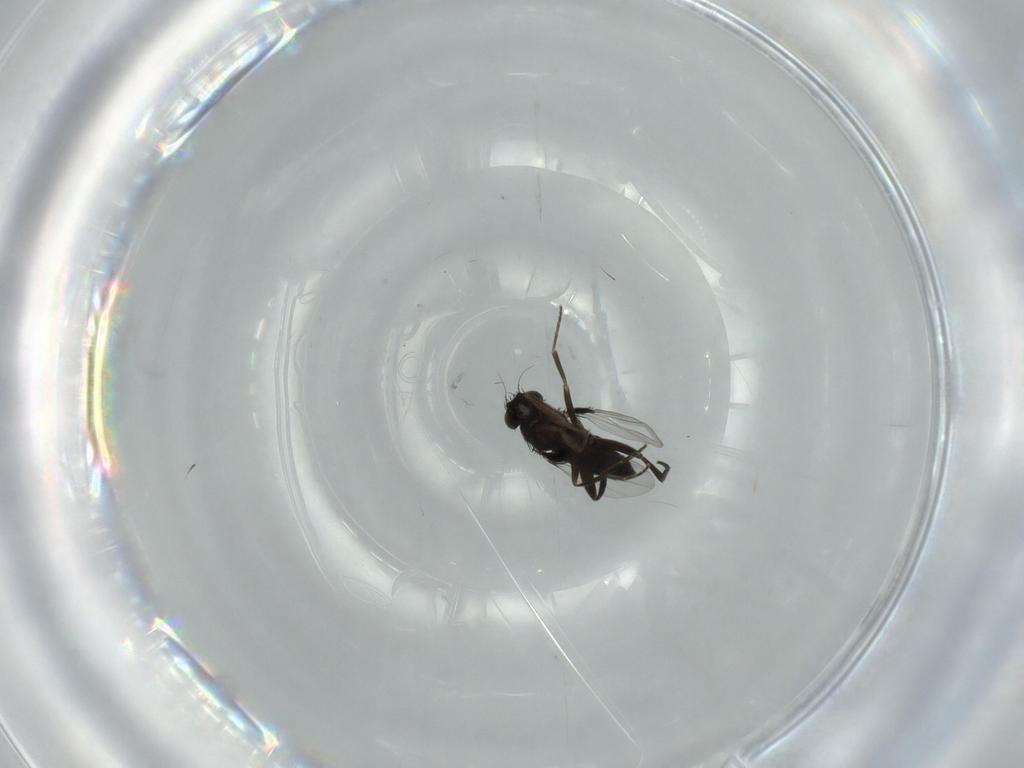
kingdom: Animalia
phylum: Arthropoda
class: Insecta
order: Diptera
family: Phoridae
